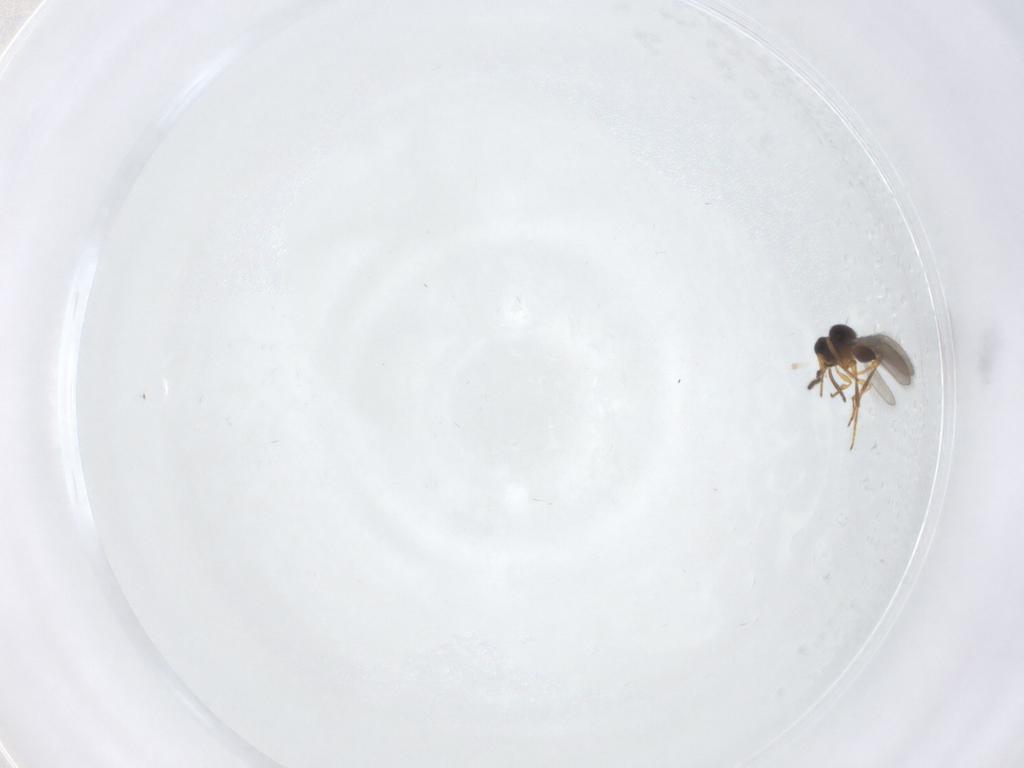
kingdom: Animalia
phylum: Arthropoda
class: Insecta
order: Hymenoptera
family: Platygastridae
